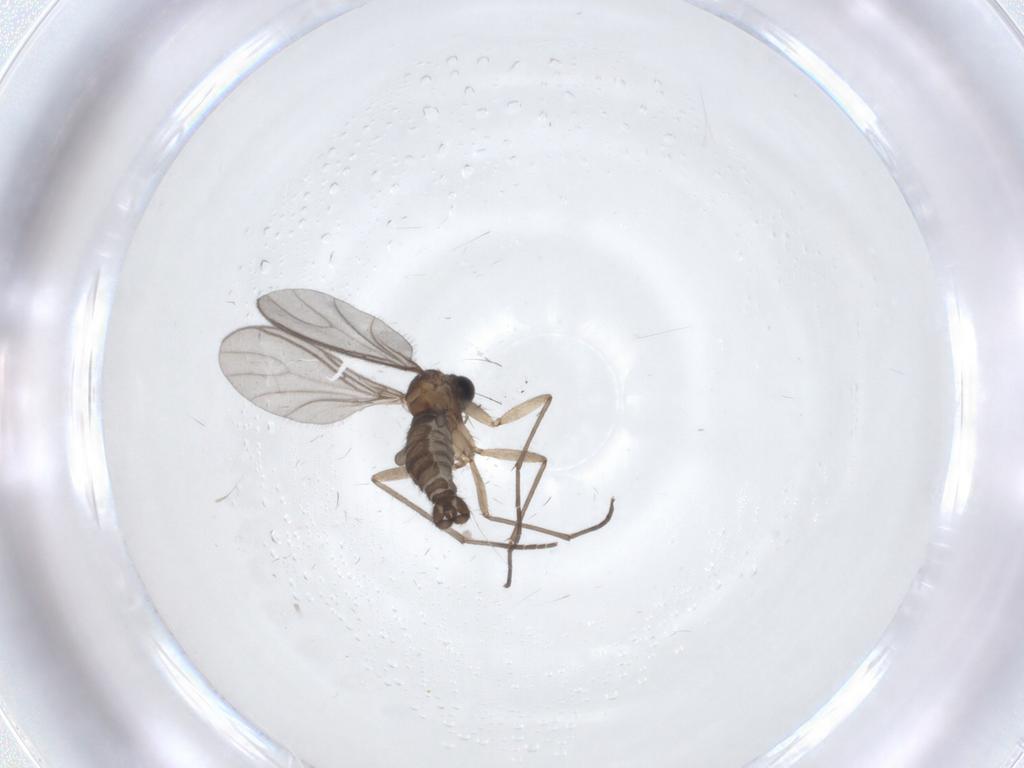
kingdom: Animalia
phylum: Arthropoda
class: Insecta
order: Diptera
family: Sciaridae
